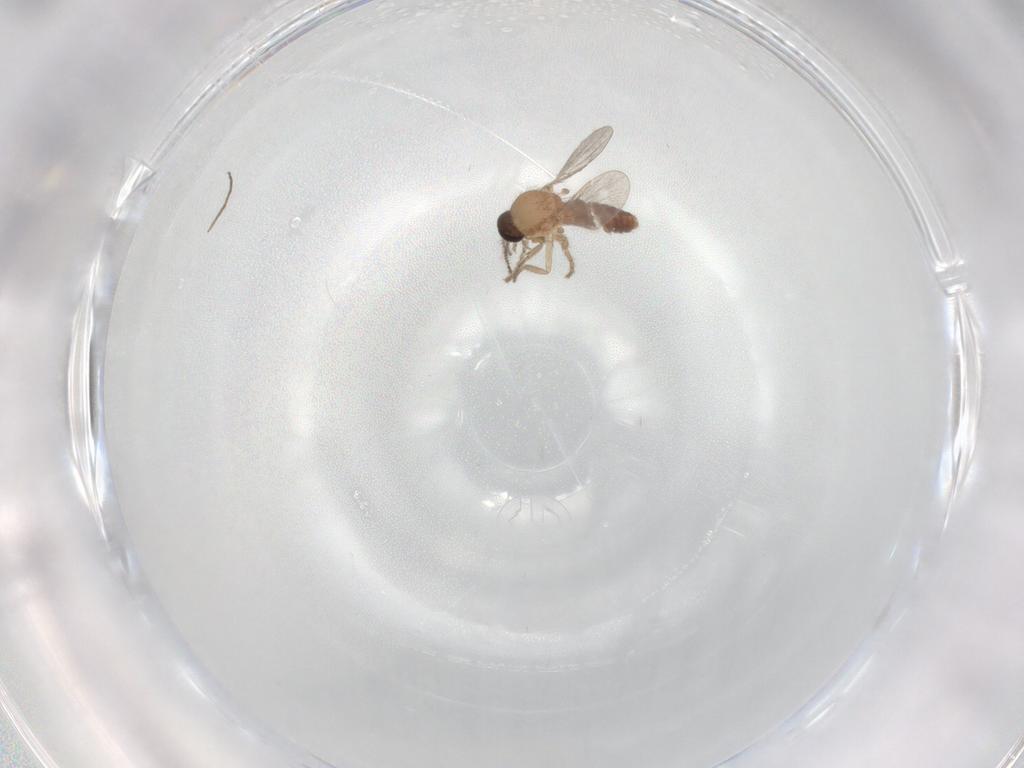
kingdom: Animalia
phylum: Arthropoda
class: Insecta
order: Diptera
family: Ceratopogonidae
